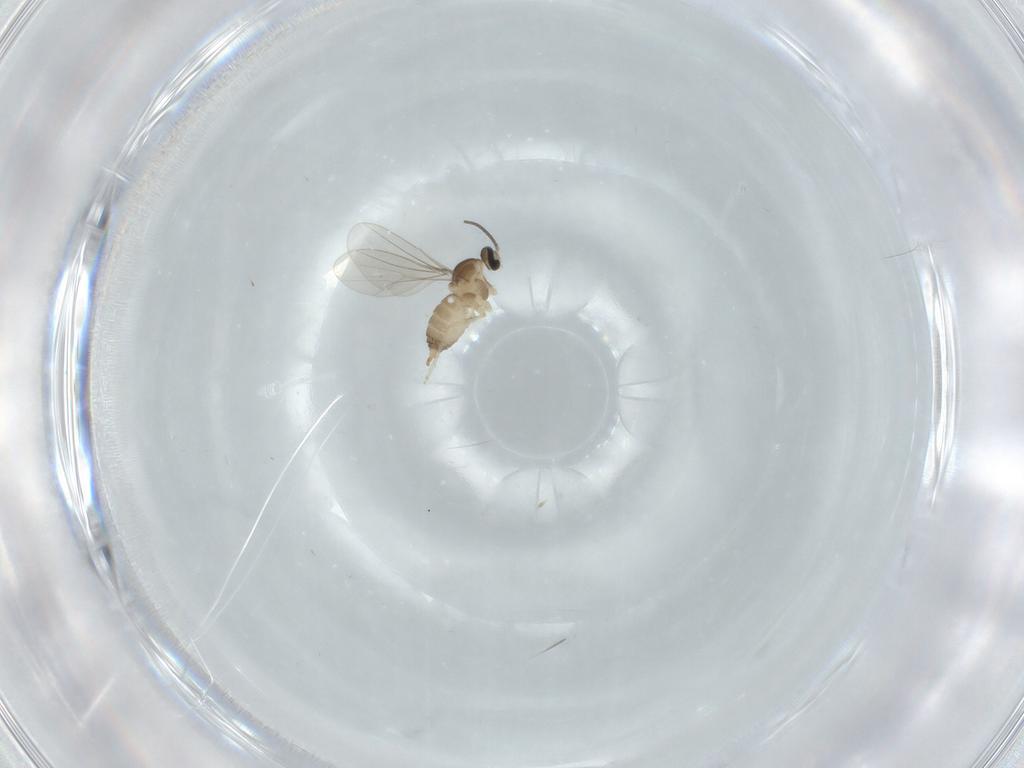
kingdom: Animalia
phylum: Arthropoda
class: Insecta
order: Diptera
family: Cecidomyiidae
